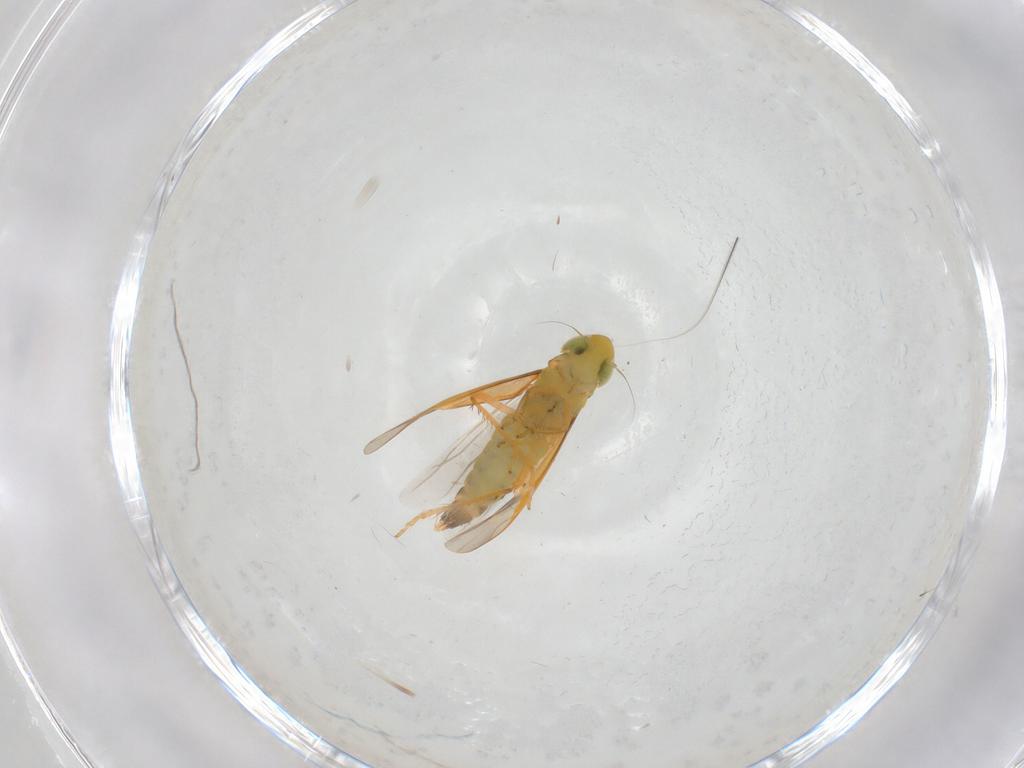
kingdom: Animalia
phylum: Arthropoda
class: Insecta
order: Hemiptera
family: Cicadellidae
